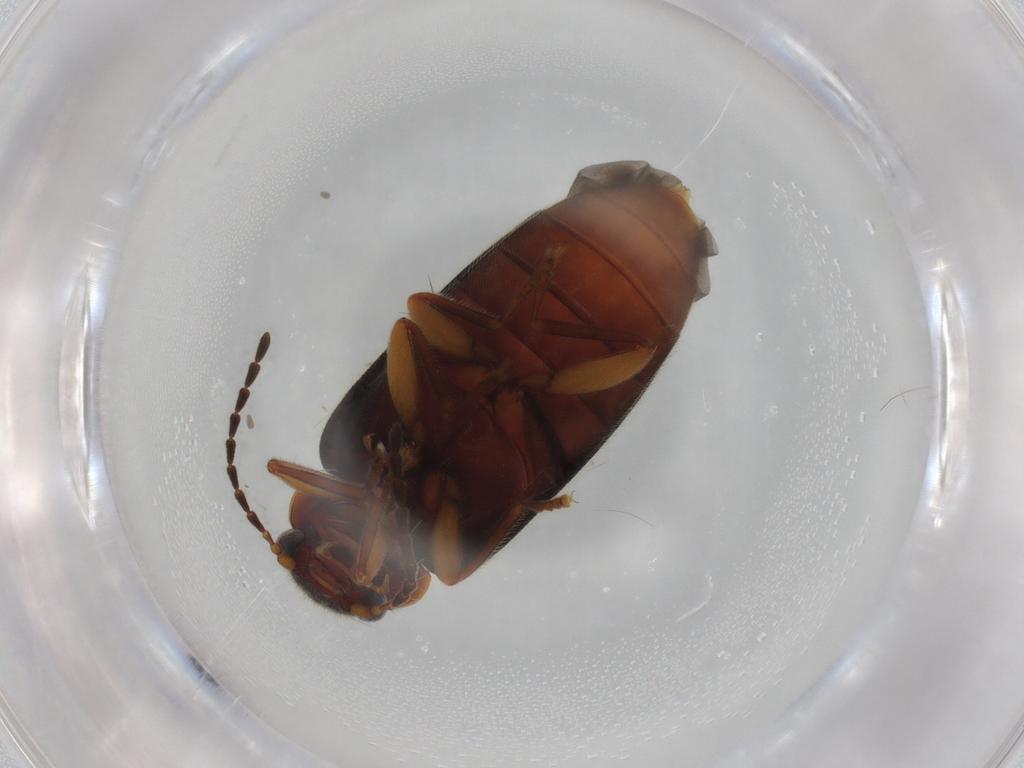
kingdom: Animalia
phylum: Arthropoda
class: Insecta
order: Coleoptera
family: Scirtidae
